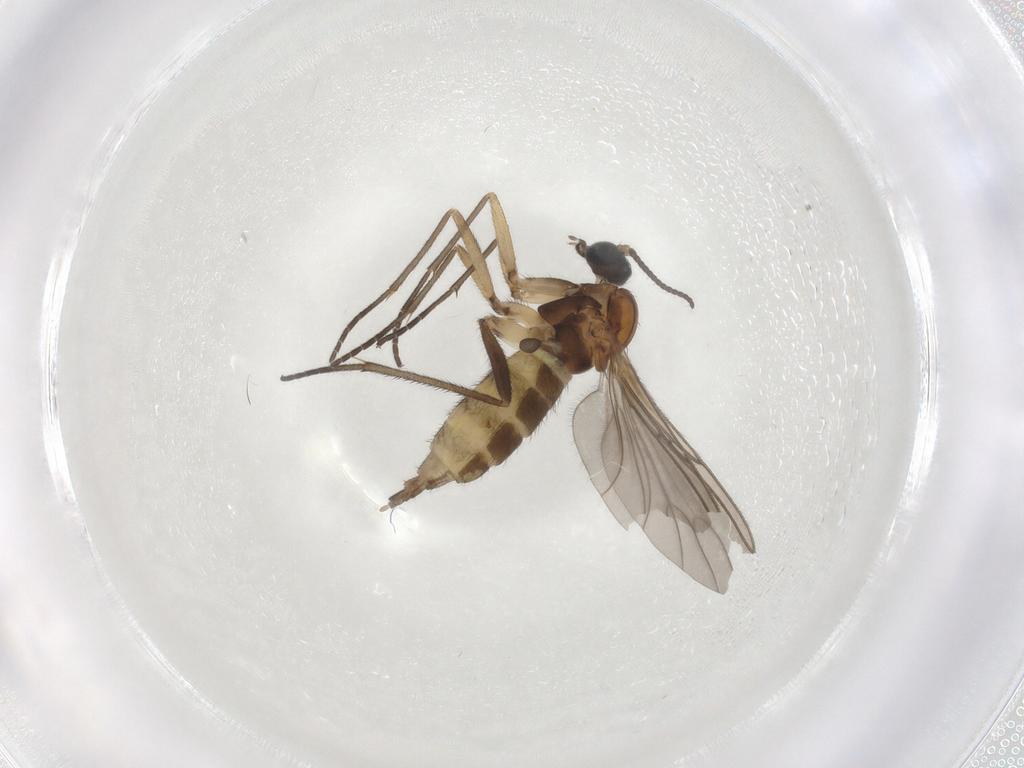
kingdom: Animalia
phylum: Arthropoda
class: Insecta
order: Diptera
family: Sciaridae
